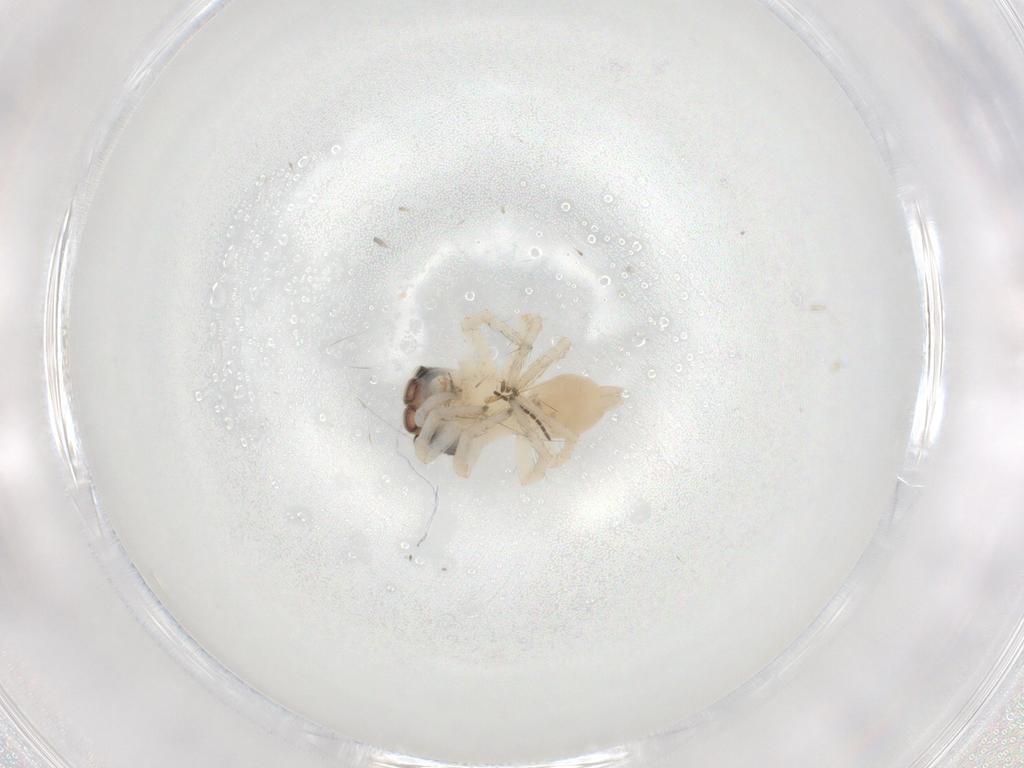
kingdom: Animalia
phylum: Arthropoda
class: Arachnida
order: Araneae
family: Salticidae
